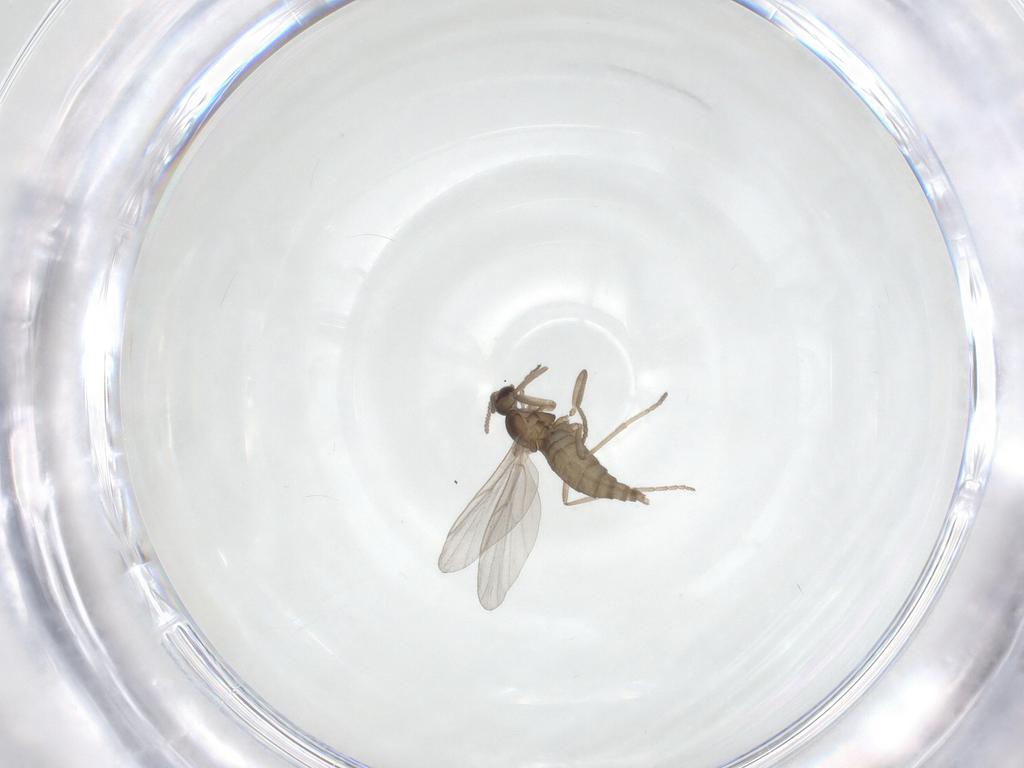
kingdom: Animalia
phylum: Arthropoda
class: Insecta
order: Diptera
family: Cecidomyiidae
